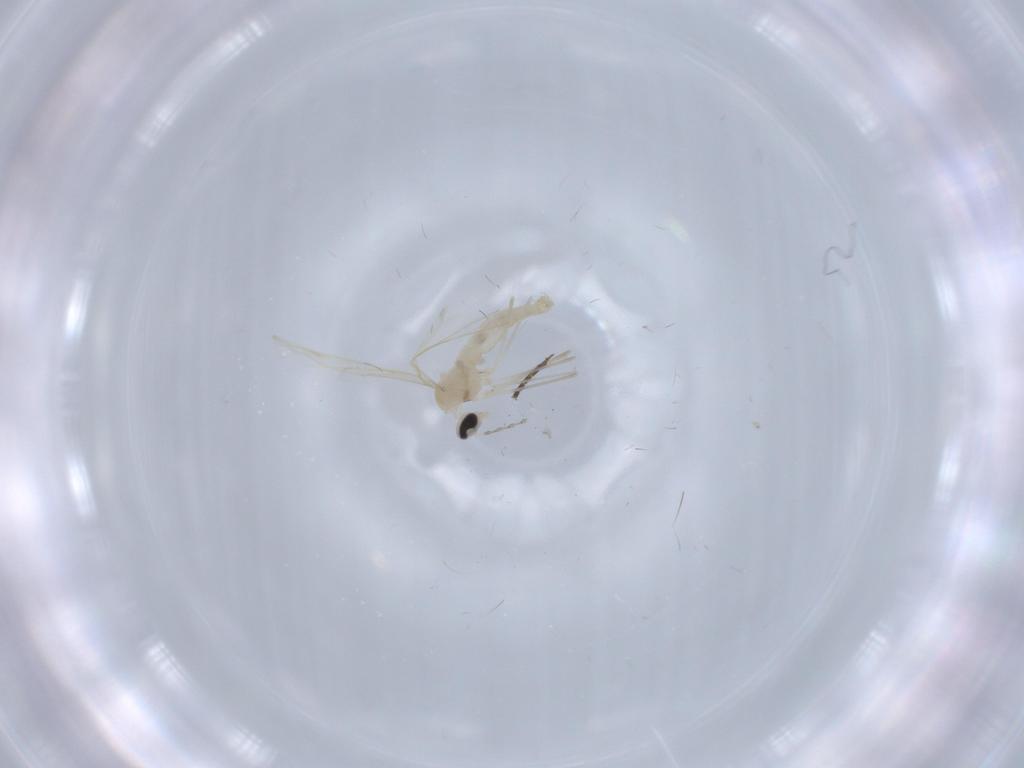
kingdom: Animalia
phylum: Arthropoda
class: Insecta
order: Diptera
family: Cecidomyiidae
